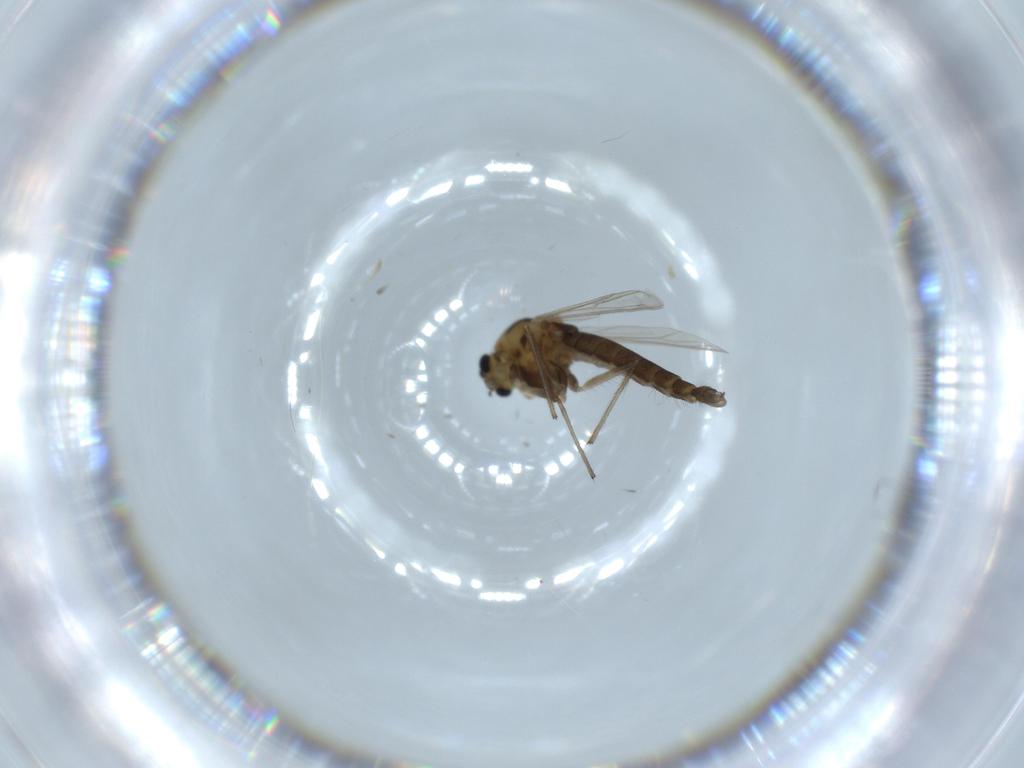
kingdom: Animalia
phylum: Arthropoda
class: Insecta
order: Diptera
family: Chironomidae
